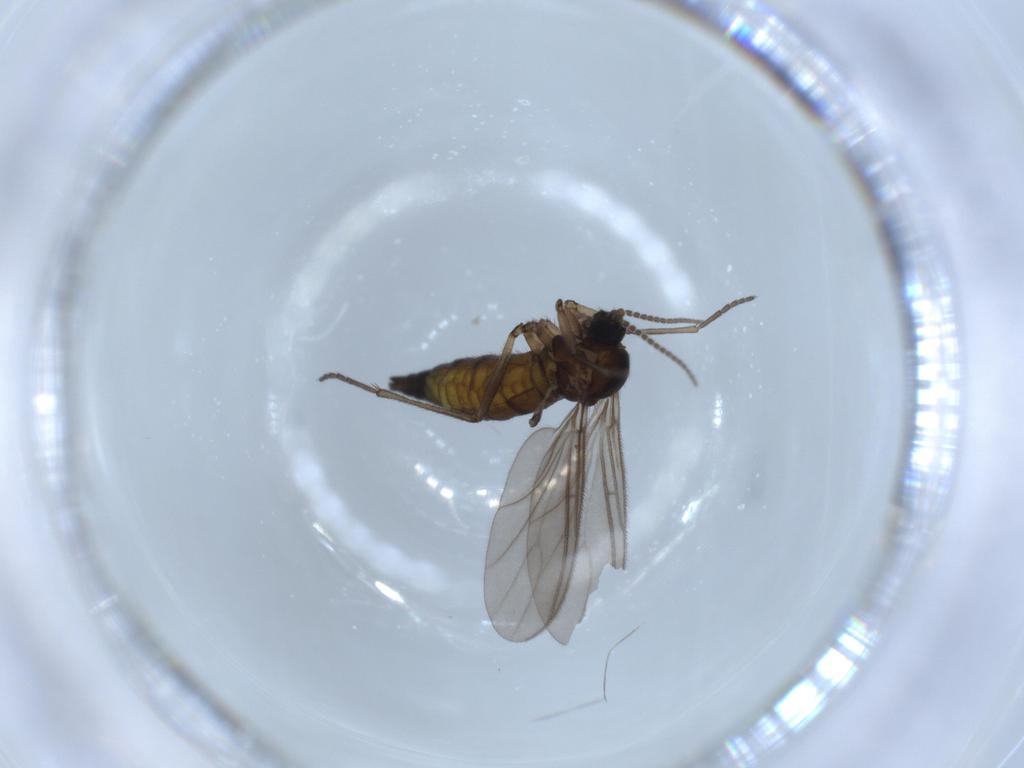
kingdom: Animalia
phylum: Arthropoda
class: Insecta
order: Diptera
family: Sciaridae
